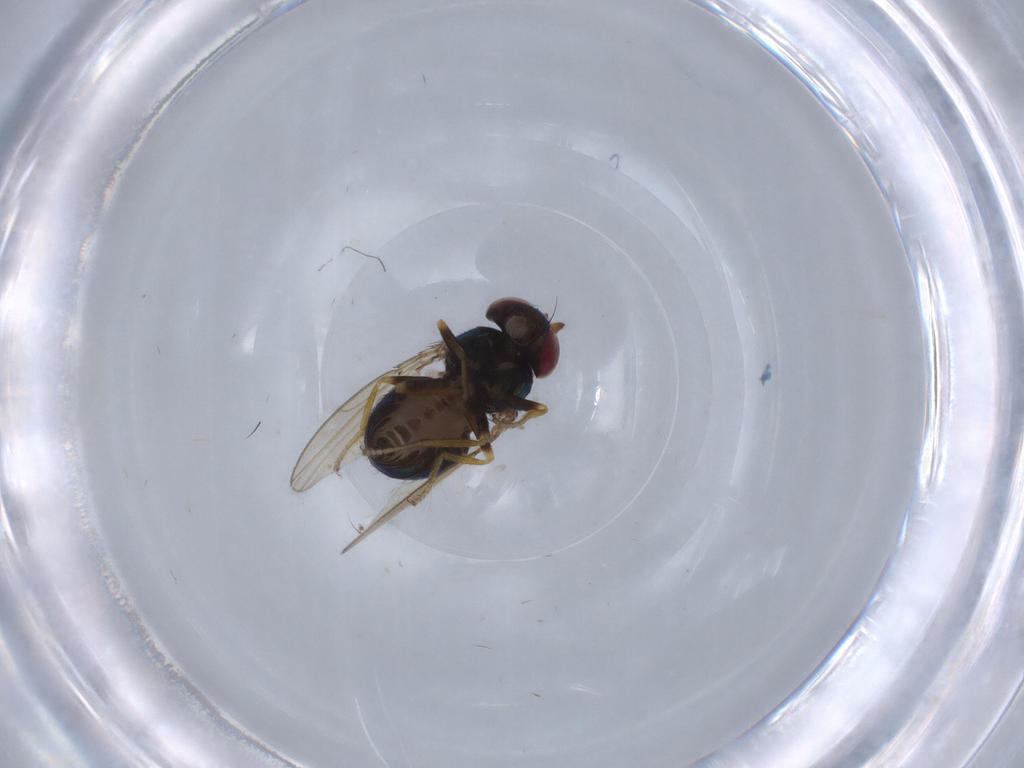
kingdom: Animalia
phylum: Arthropoda
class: Insecta
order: Diptera
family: Ephydridae
